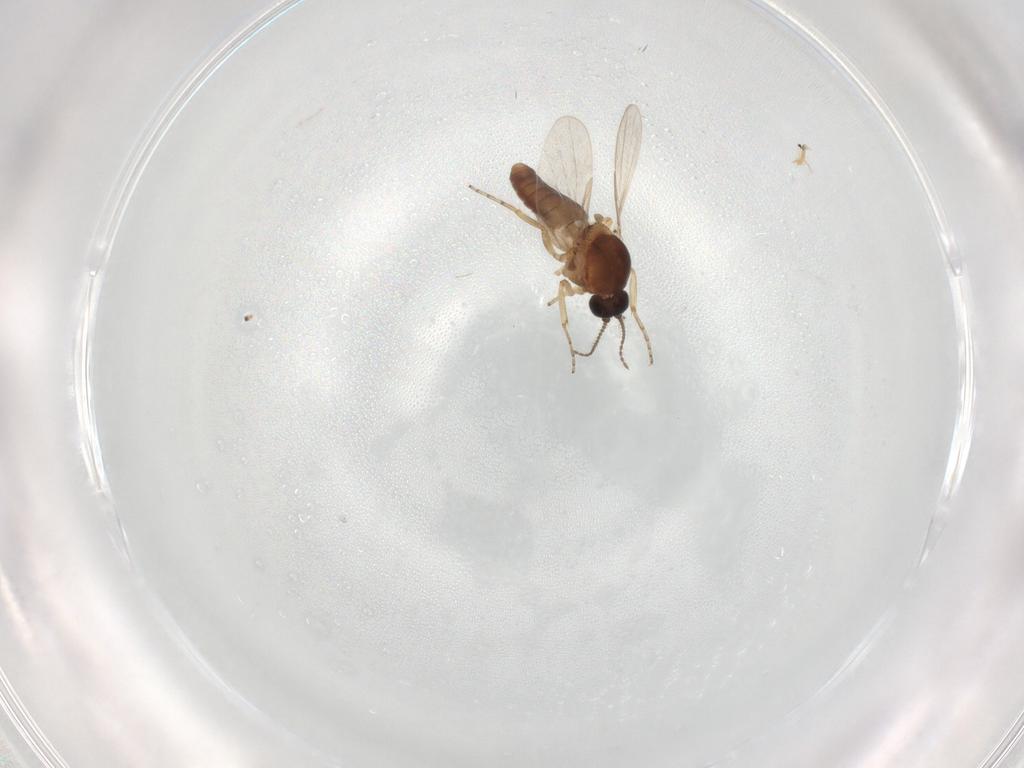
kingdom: Animalia
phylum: Arthropoda
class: Insecta
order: Diptera
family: Ceratopogonidae
